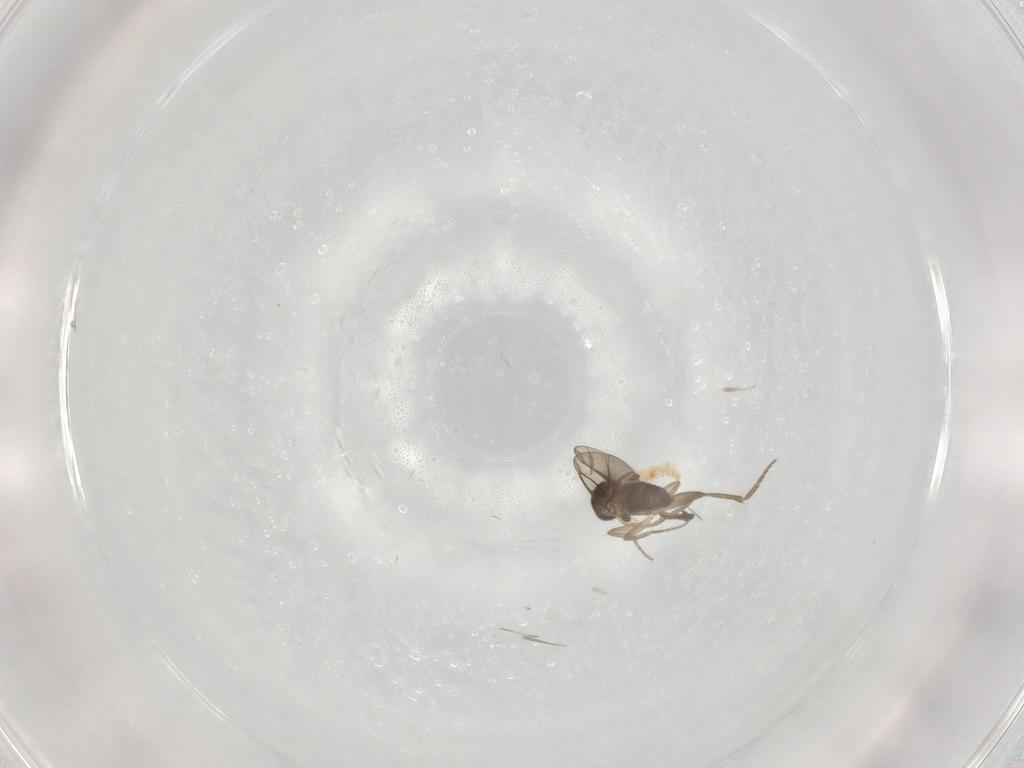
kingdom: Animalia
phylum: Arthropoda
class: Insecta
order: Diptera
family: Phoridae
